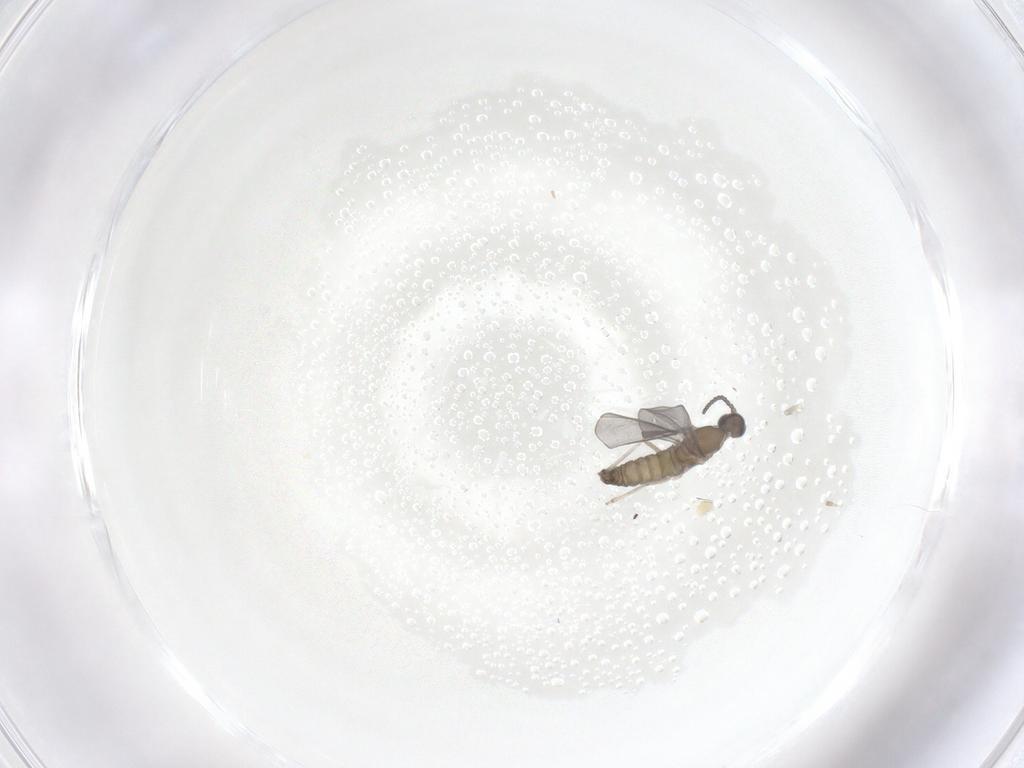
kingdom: Animalia
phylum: Arthropoda
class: Insecta
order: Diptera
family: Cecidomyiidae
